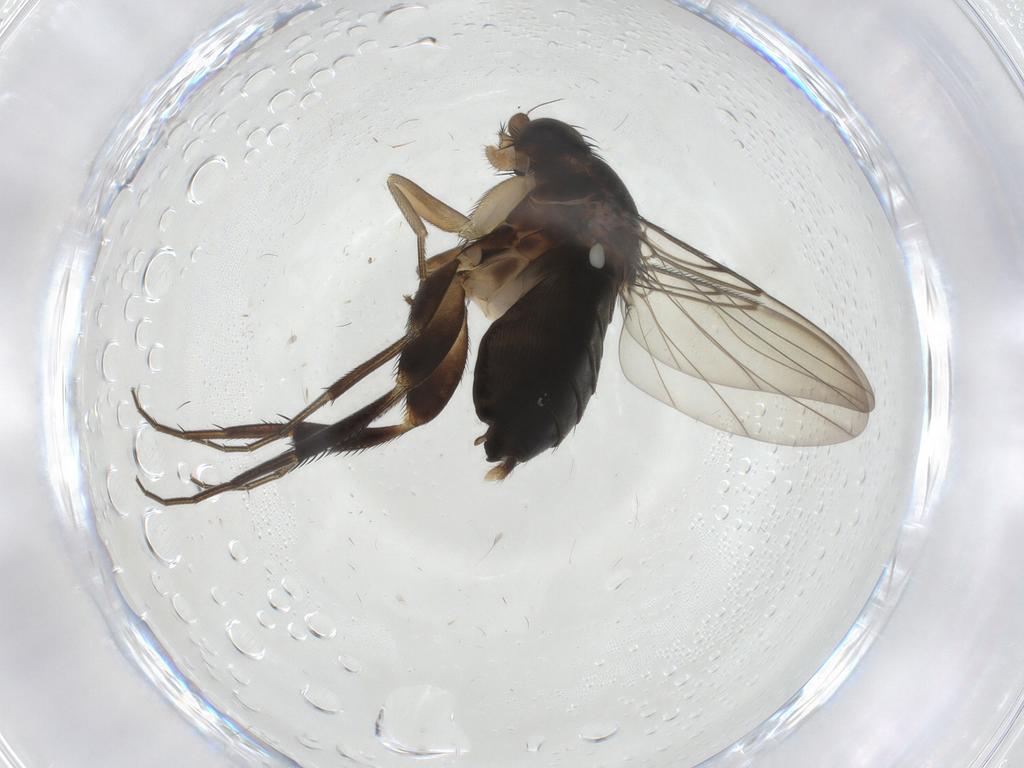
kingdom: Animalia
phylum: Arthropoda
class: Insecta
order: Diptera
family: Phoridae
